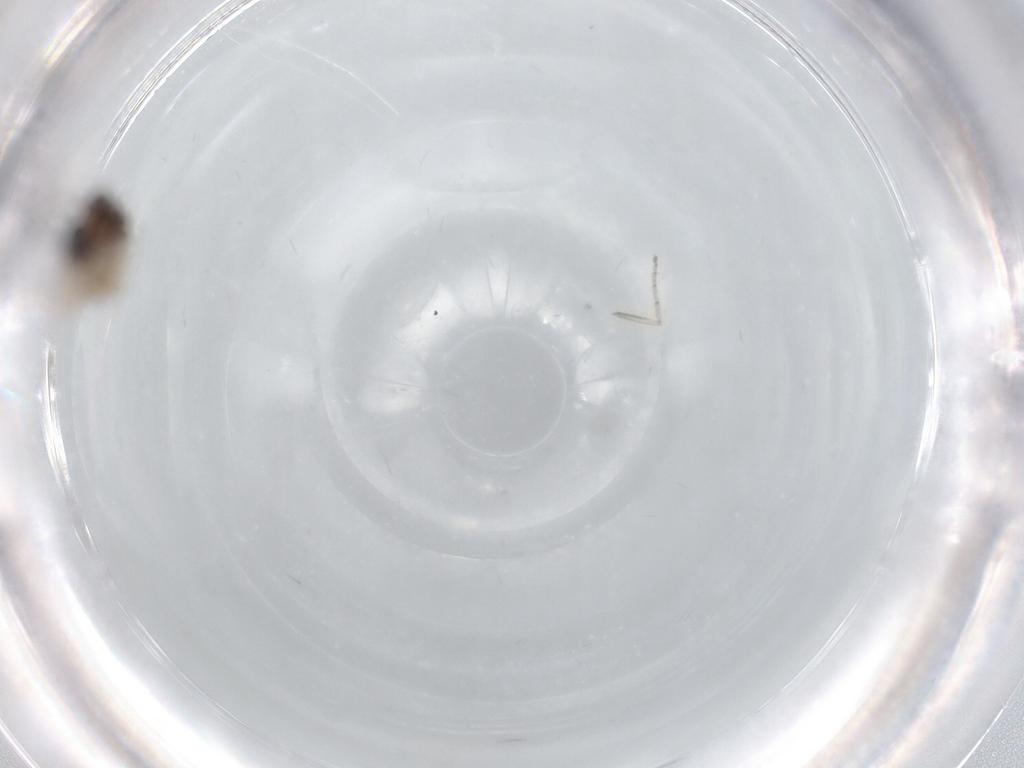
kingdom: Animalia
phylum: Arthropoda
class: Insecta
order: Diptera
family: Ceratopogonidae
